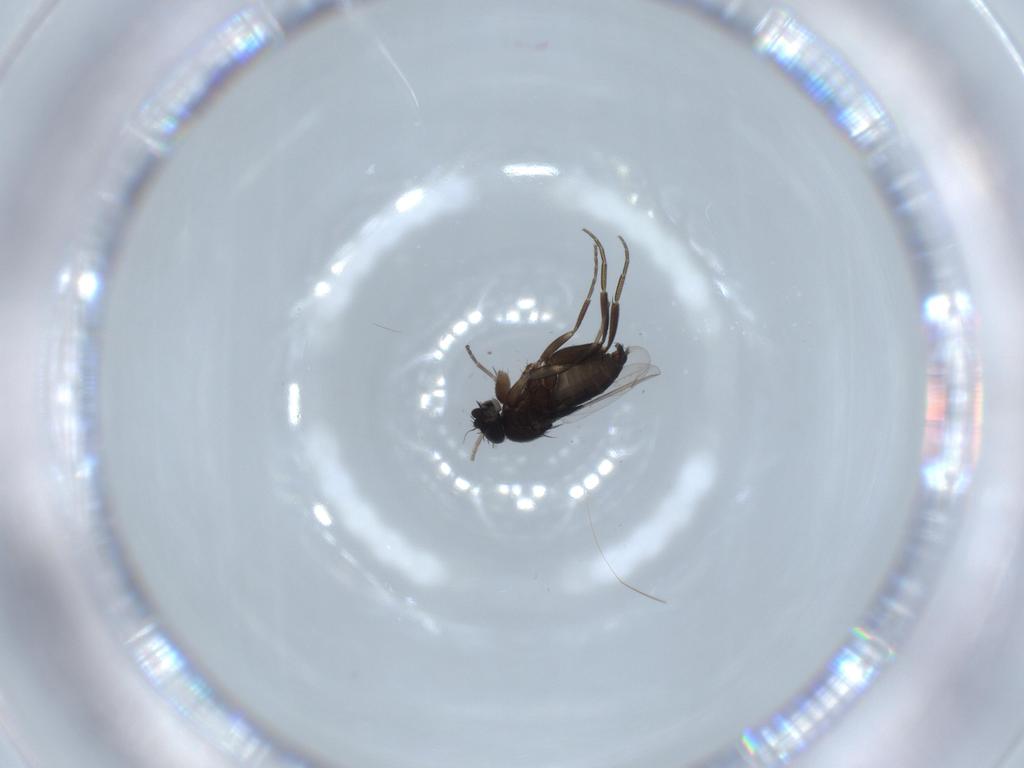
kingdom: Animalia
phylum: Arthropoda
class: Insecta
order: Diptera
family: Phoridae
